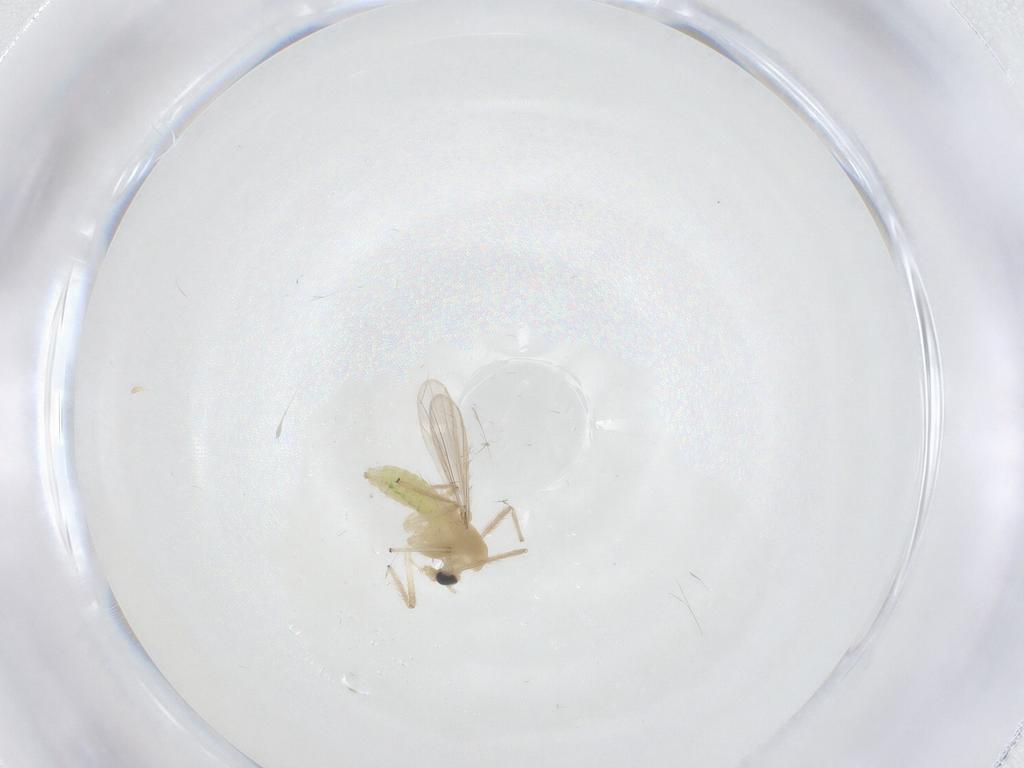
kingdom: Animalia
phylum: Arthropoda
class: Insecta
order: Diptera
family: Chironomidae
